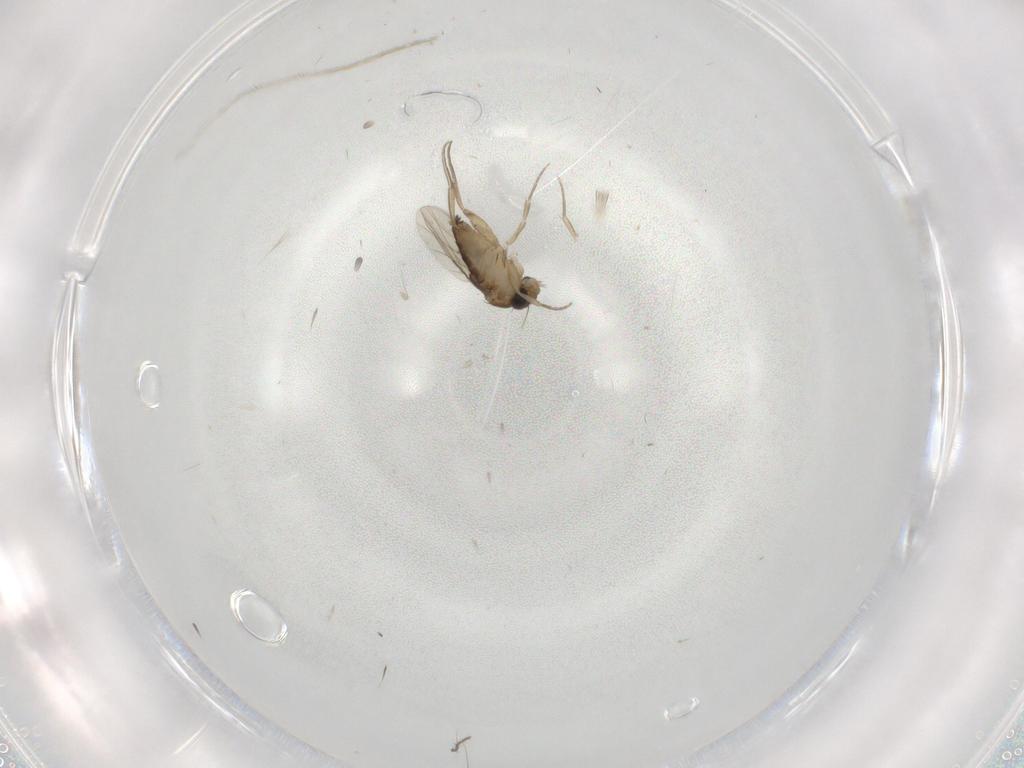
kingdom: Animalia
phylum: Arthropoda
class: Insecta
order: Diptera
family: Phoridae
